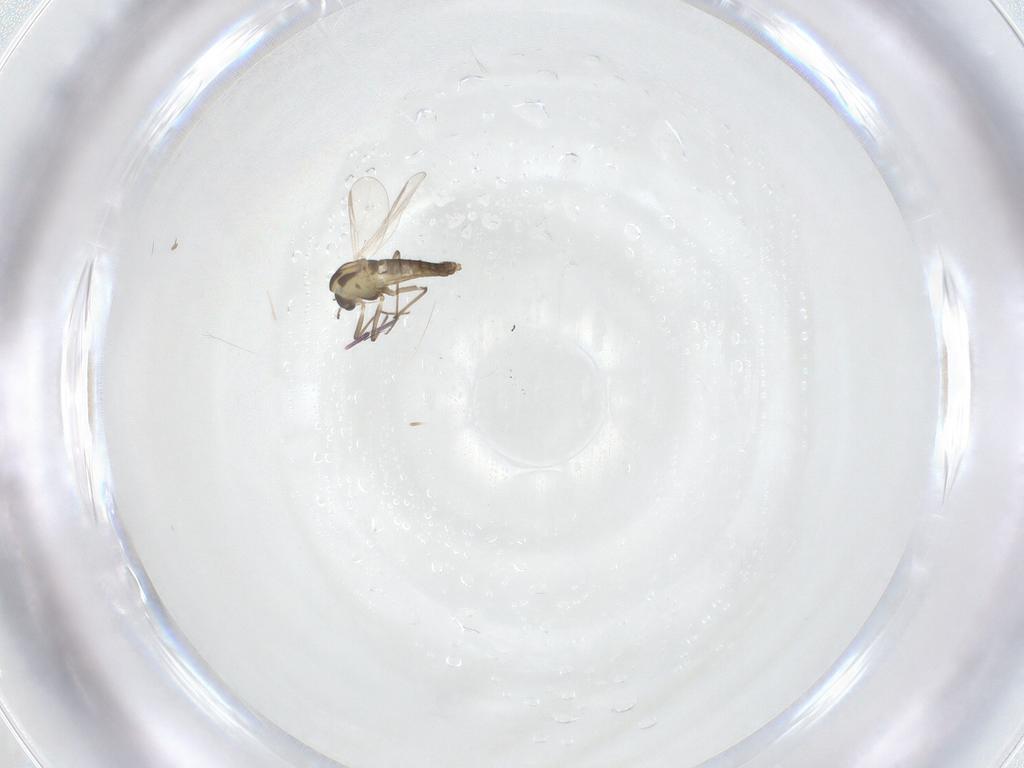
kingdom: Animalia
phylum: Arthropoda
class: Insecta
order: Diptera
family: Chironomidae
